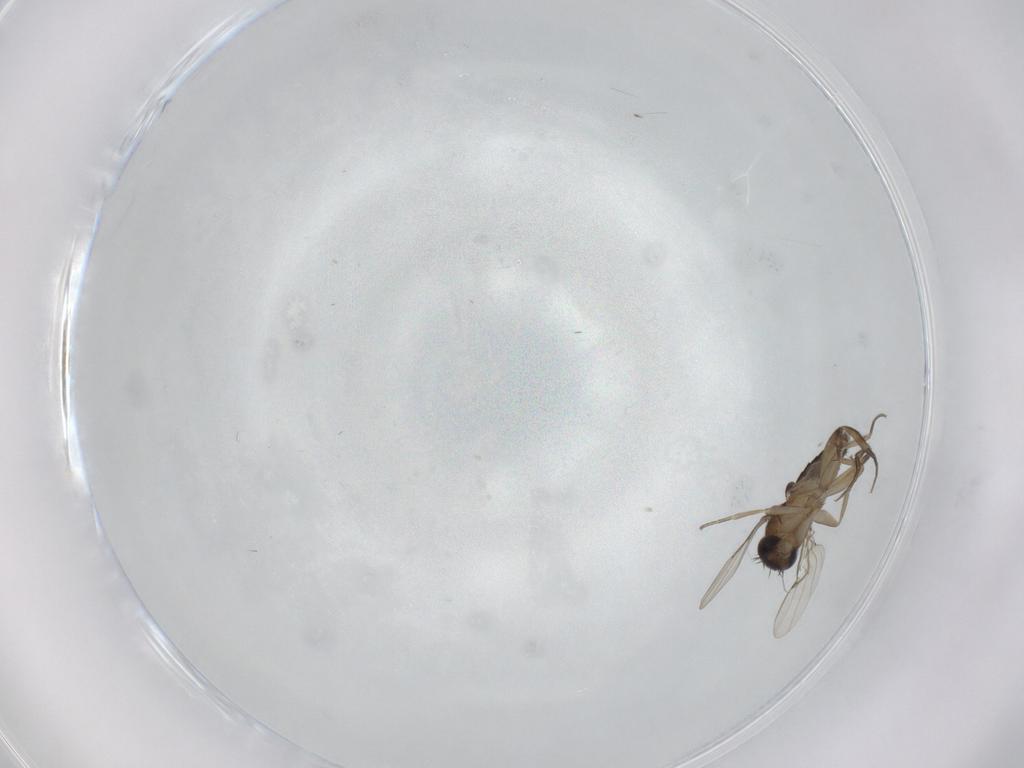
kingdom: Animalia
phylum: Arthropoda
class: Insecta
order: Diptera
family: Phoridae
